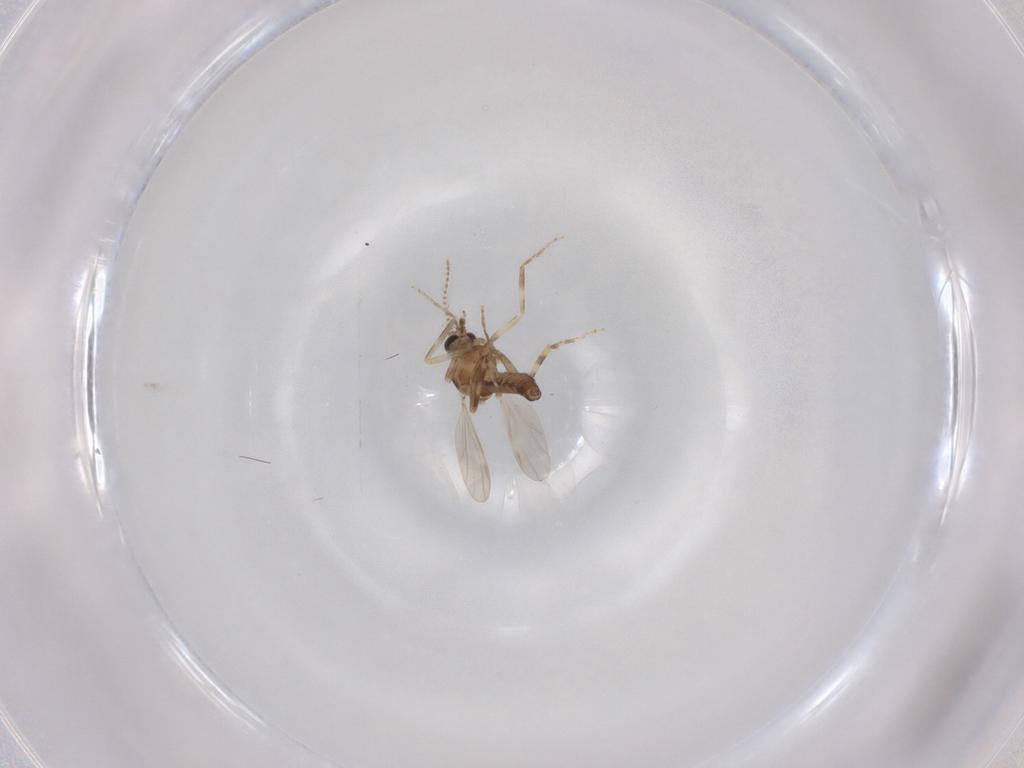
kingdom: Animalia
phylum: Arthropoda
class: Insecta
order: Diptera
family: Ceratopogonidae
